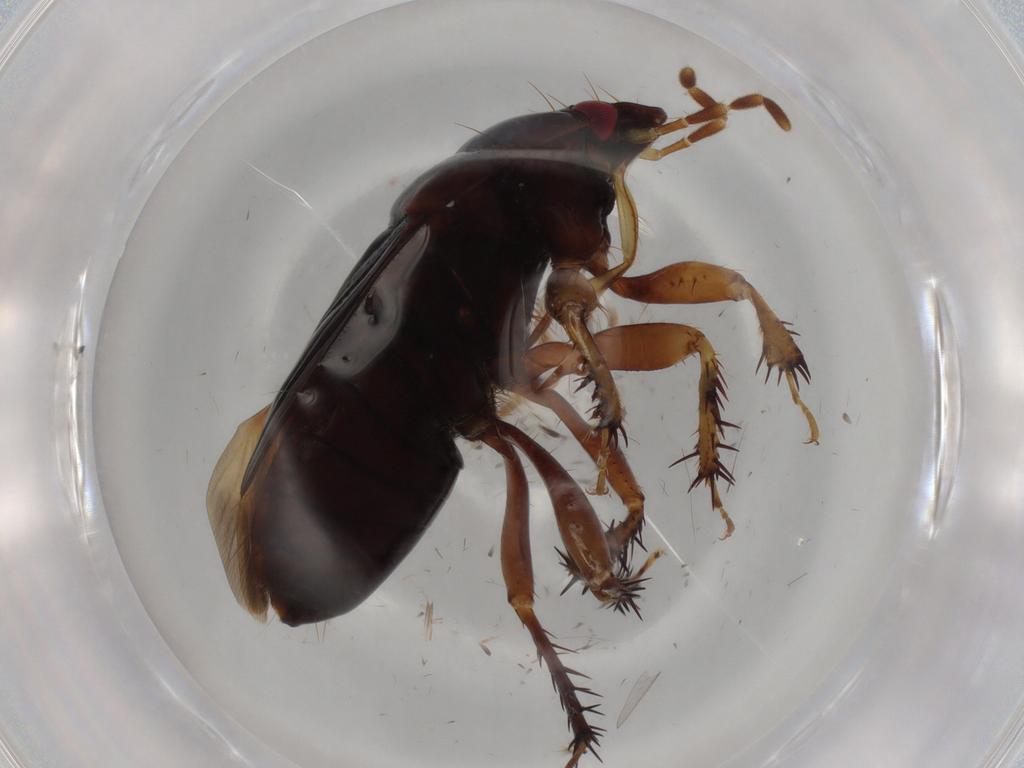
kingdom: Animalia
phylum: Arthropoda
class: Insecta
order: Hemiptera
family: Cydnidae
